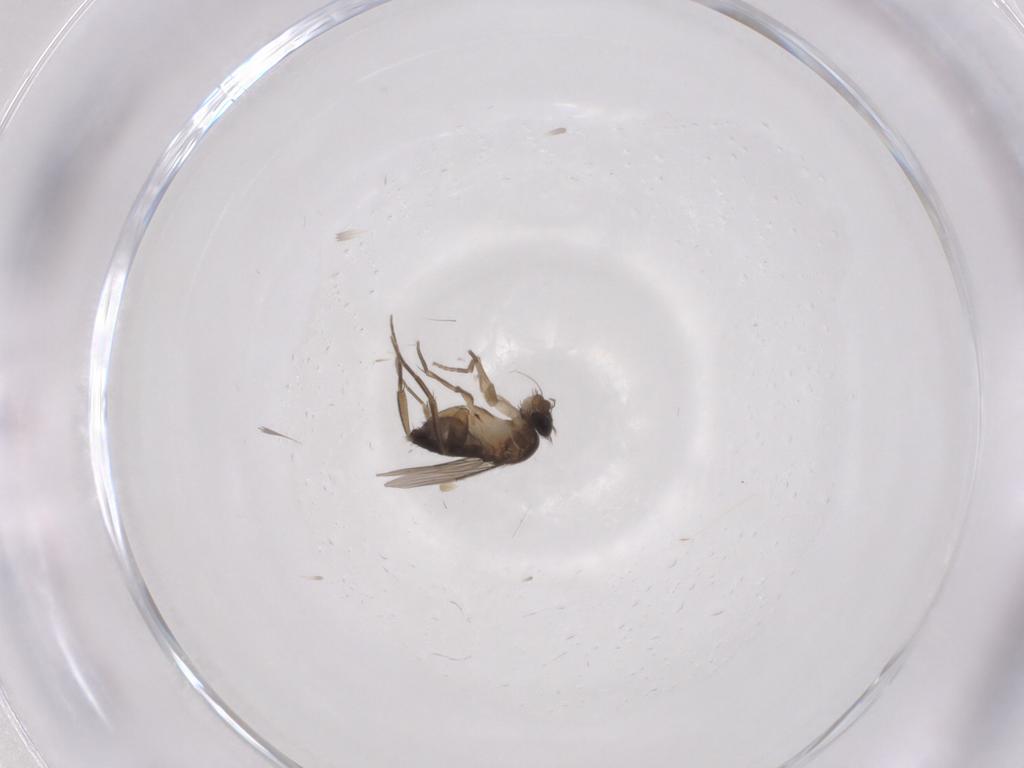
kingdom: Animalia
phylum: Arthropoda
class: Insecta
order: Diptera
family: Phoridae
